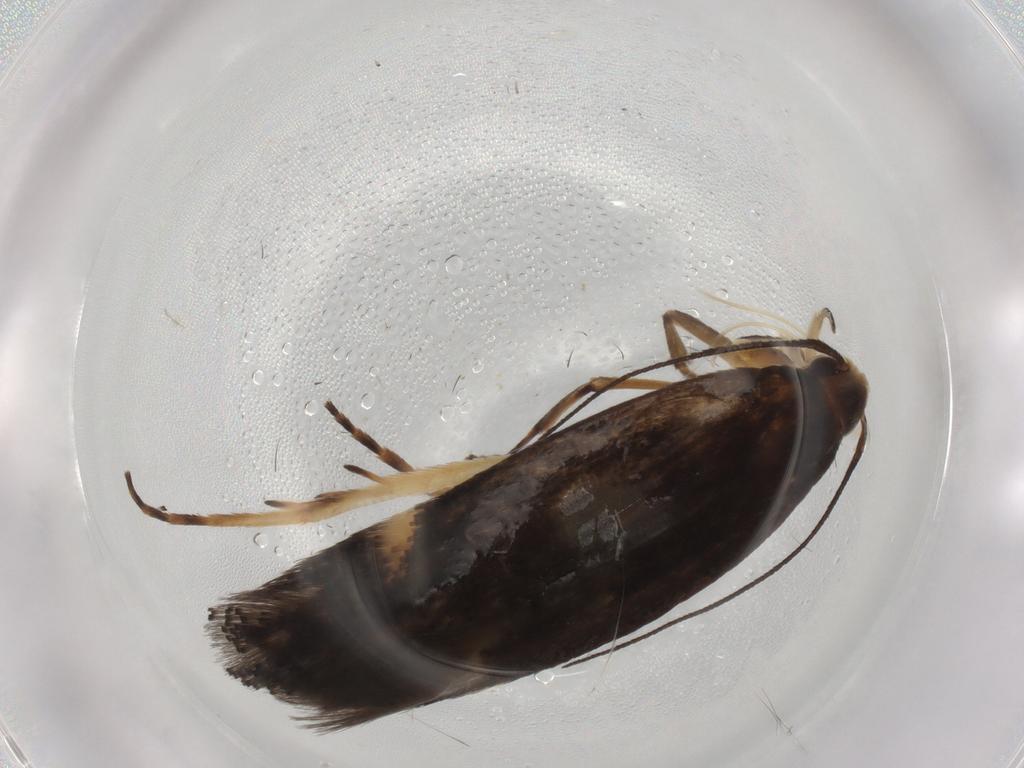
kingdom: Animalia
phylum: Arthropoda
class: Insecta
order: Lepidoptera
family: Gelechiidae
